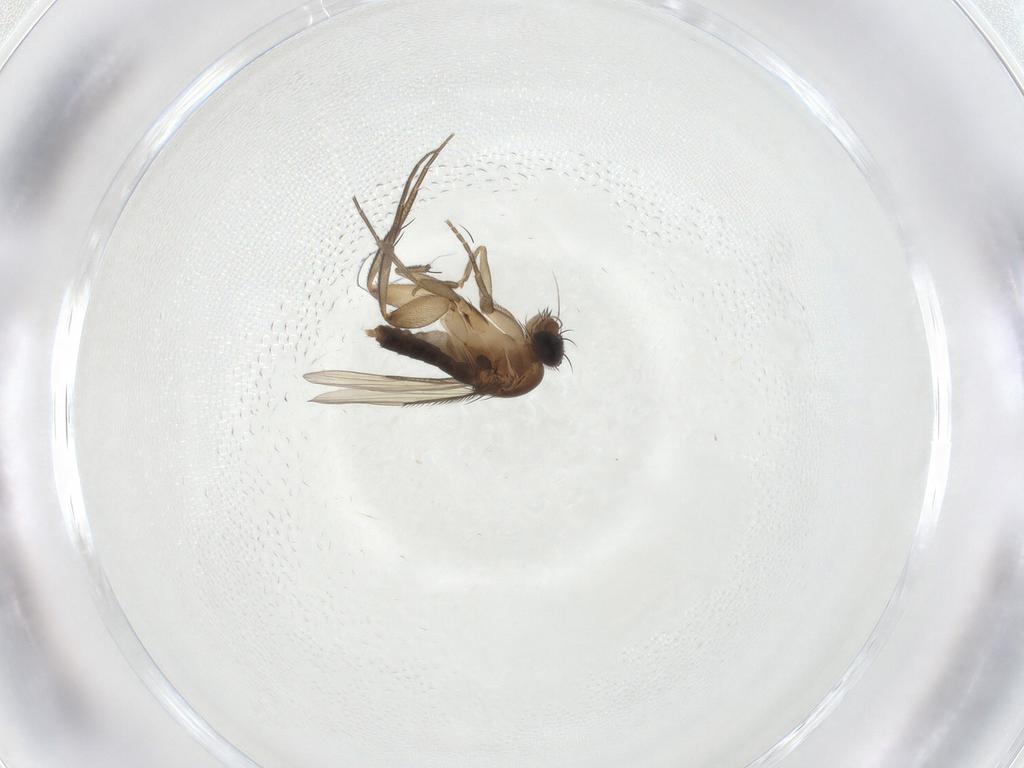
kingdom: Animalia
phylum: Arthropoda
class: Insecta
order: Diptera
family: Chironomidae
